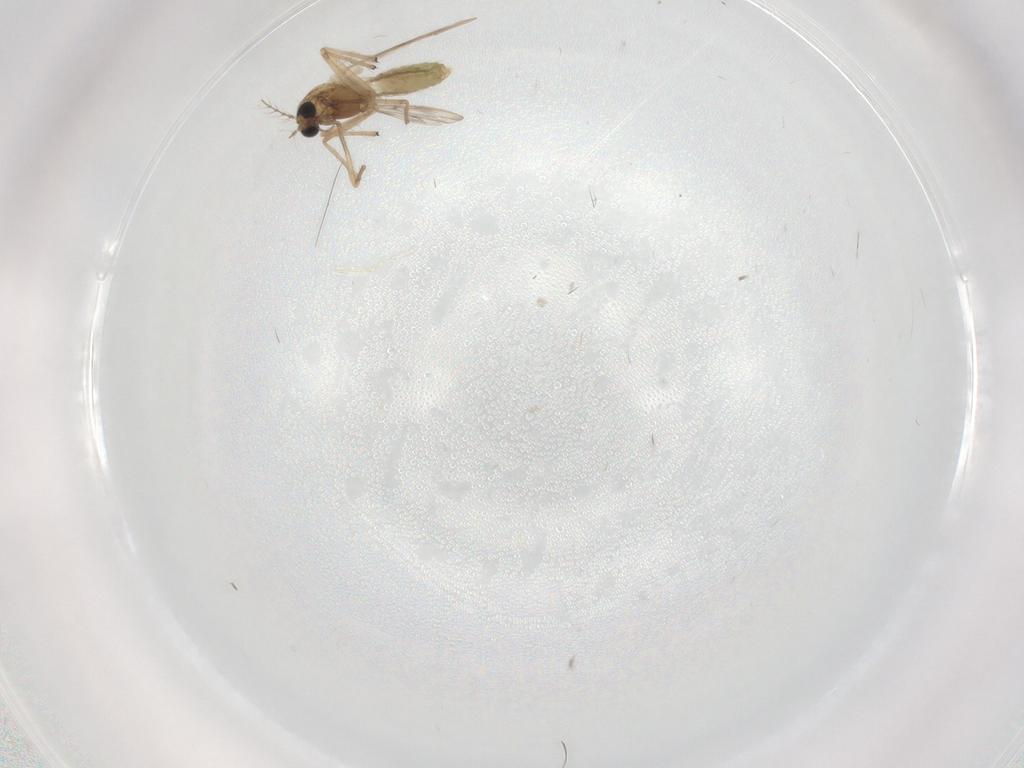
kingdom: Animalia
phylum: Arthropoda
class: Insecta
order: Diptera
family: Chironomidae
